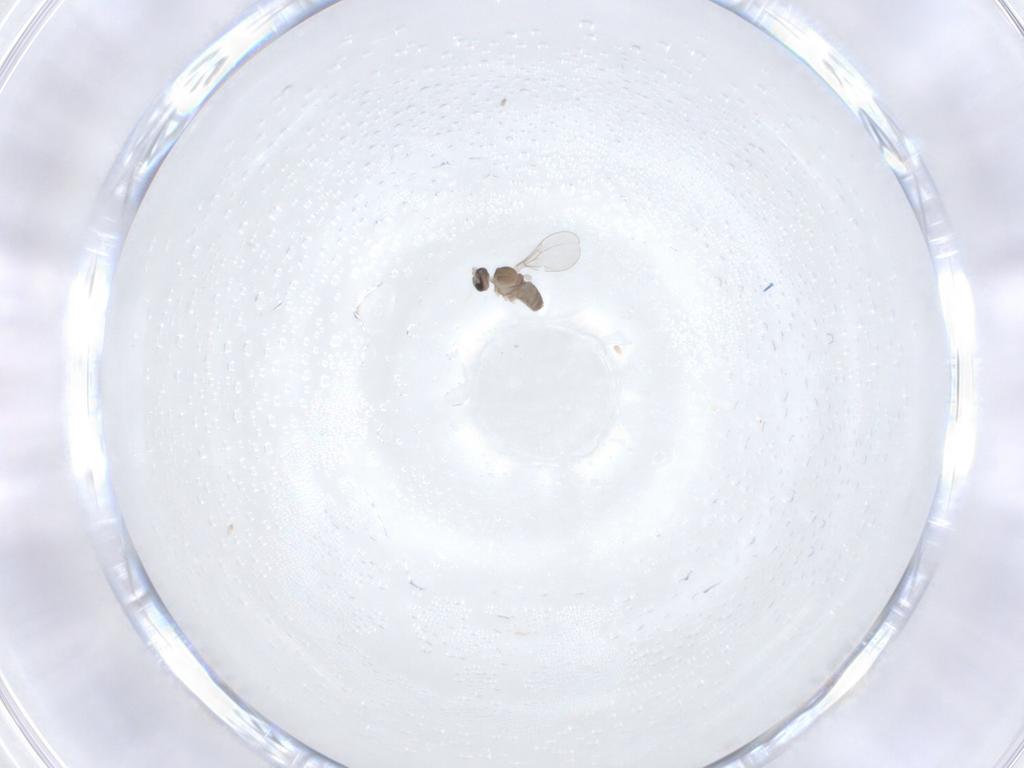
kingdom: Animalia
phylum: Arthropoda
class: Insecta
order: Diptera
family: Cecidomyiidae
